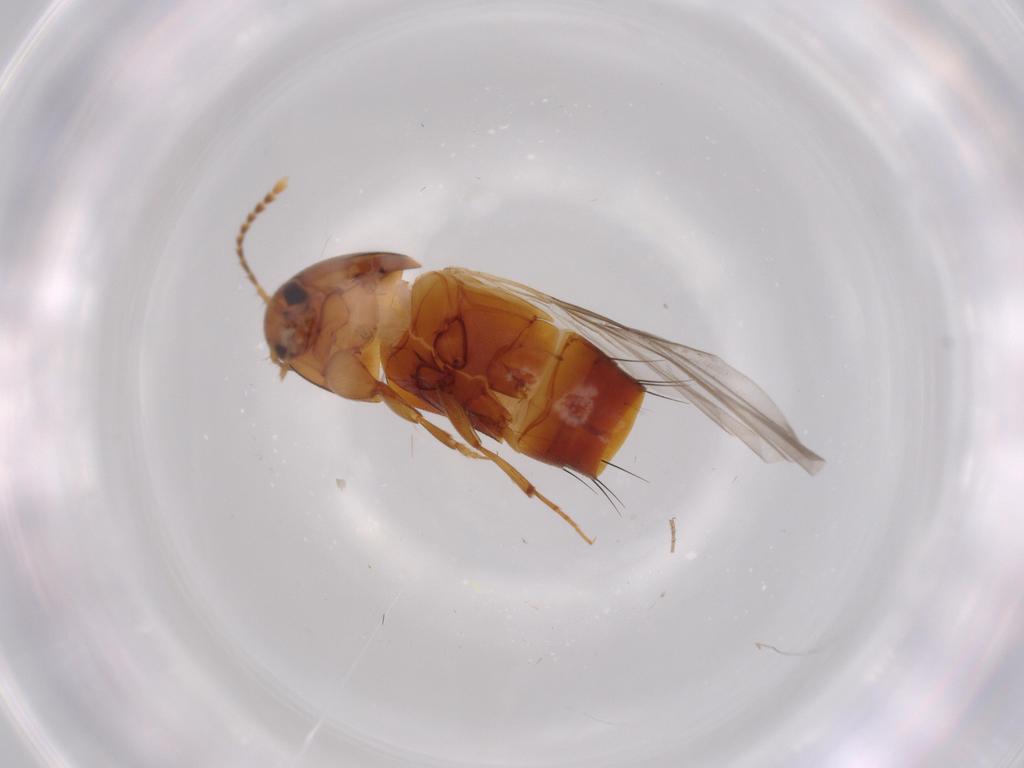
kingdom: Animalia
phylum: Arthropoda
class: Insecta
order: Coleoptera
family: Staphylinidae
